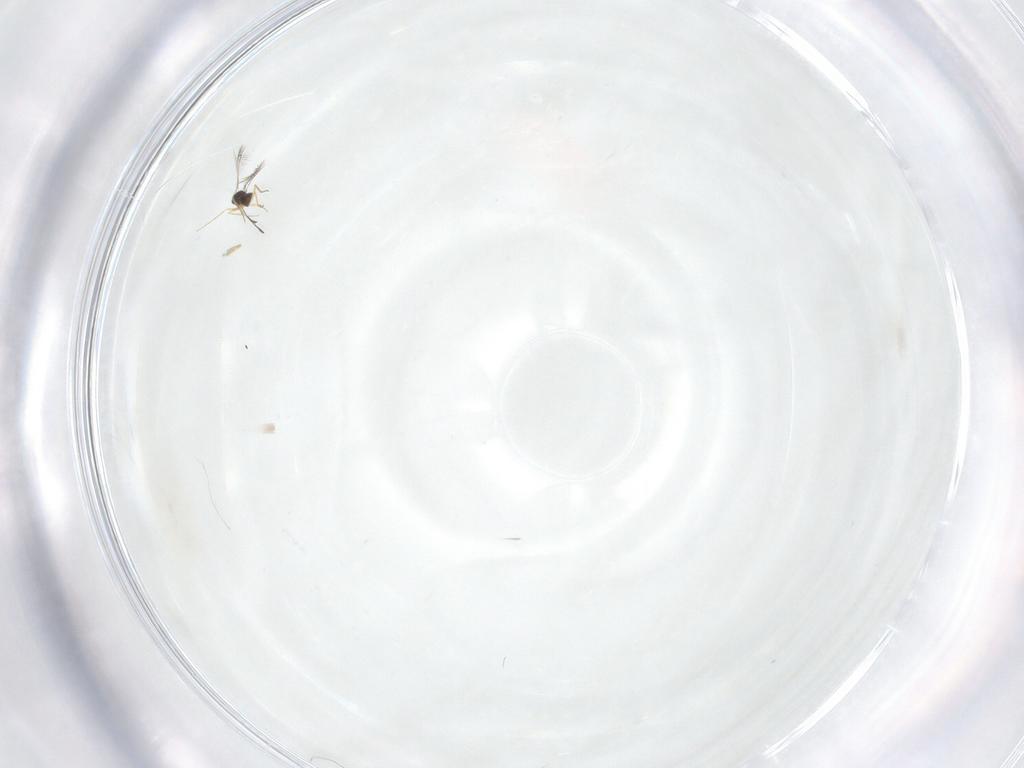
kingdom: Animalia
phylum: Arthropoda
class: Insecta
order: Hymenoptera
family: Mymaridae
